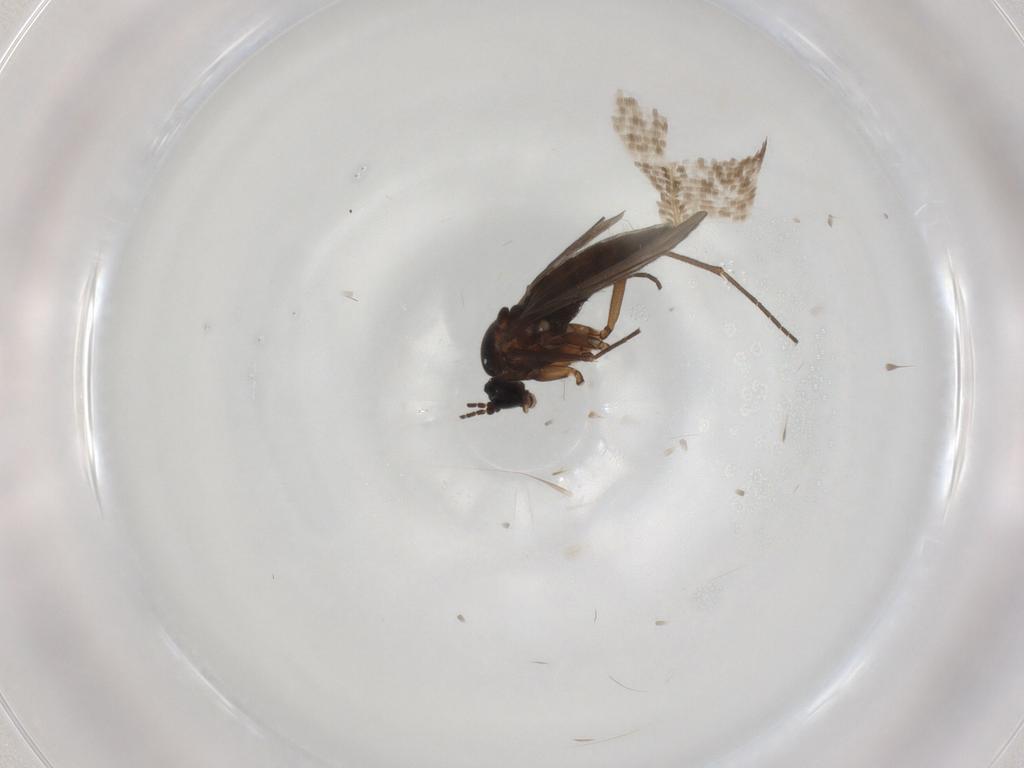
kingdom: Animalia
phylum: Arthropoda
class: Insecta
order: Diptera
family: Sciaridae
